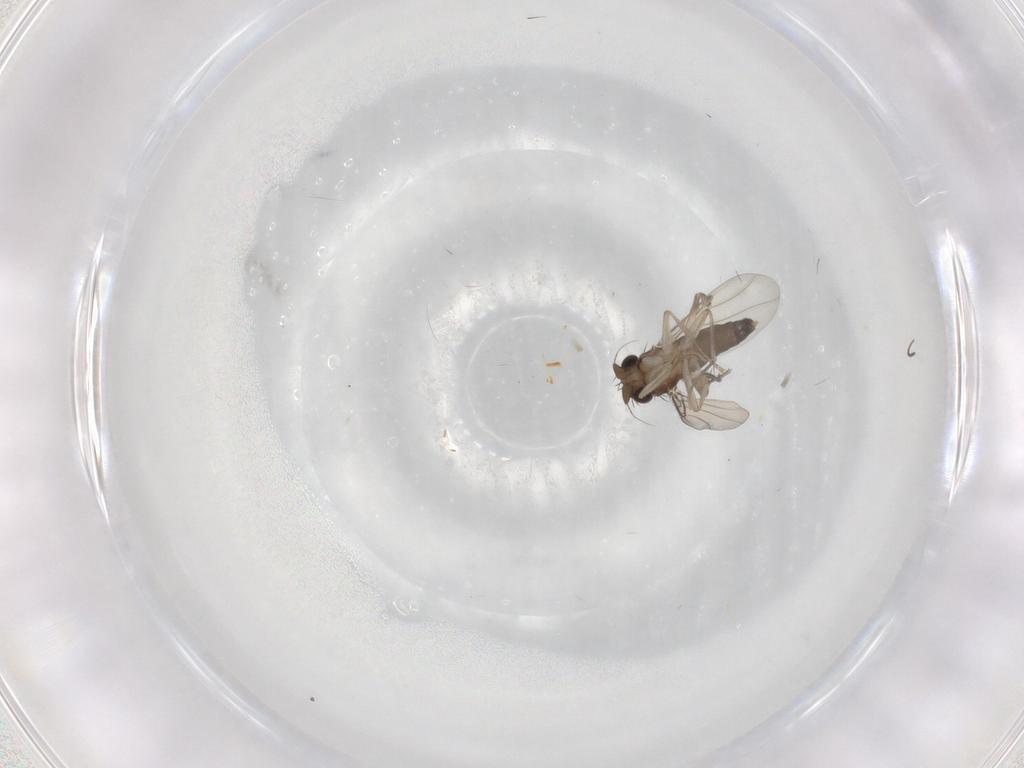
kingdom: Animalia
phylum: Arthropoda
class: Insecta
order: Diptera
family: Phoridae
